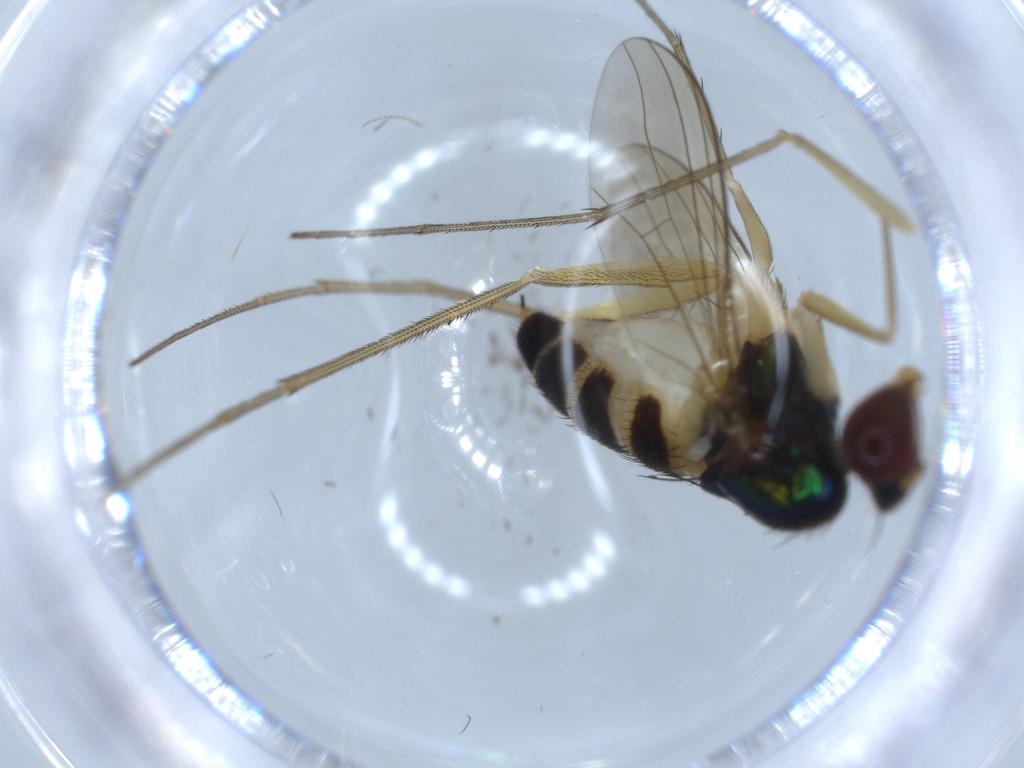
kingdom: Animalia
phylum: Arthropoda
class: Insecta
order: Diptera
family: Dolichopodidae
